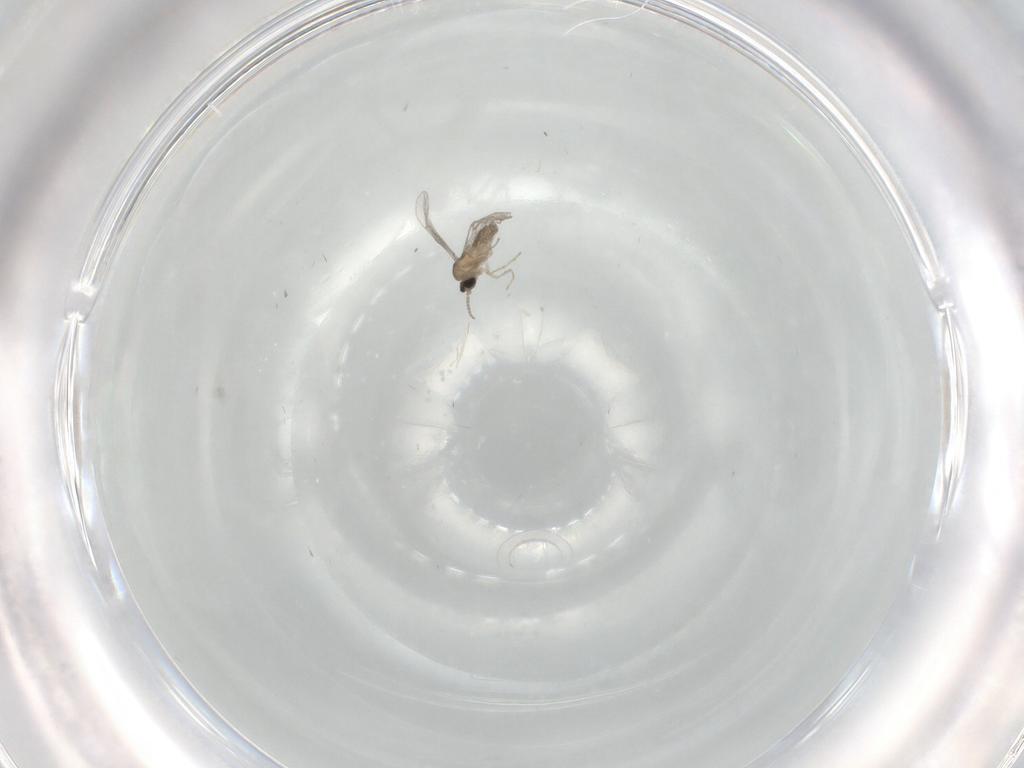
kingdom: Animalia
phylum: Arthropoda
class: Insecta
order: Diptera
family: Cecidomyiidae
